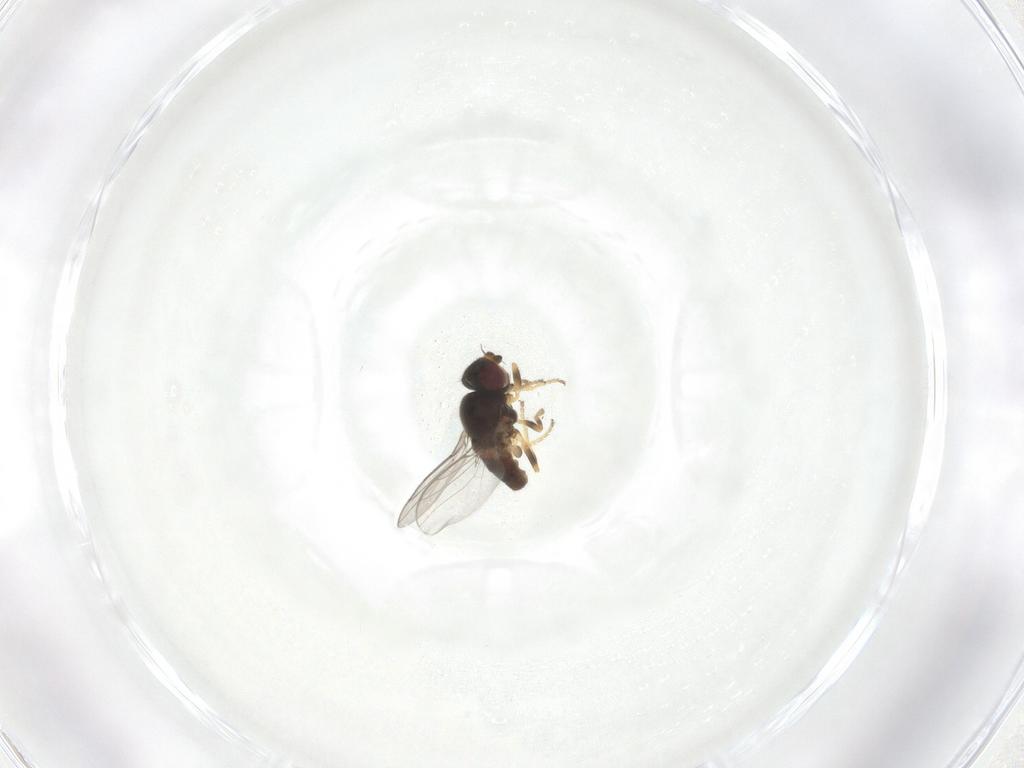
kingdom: Animalia
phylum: Arthropoda
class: Insecta
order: Diptera
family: Chloropidae
